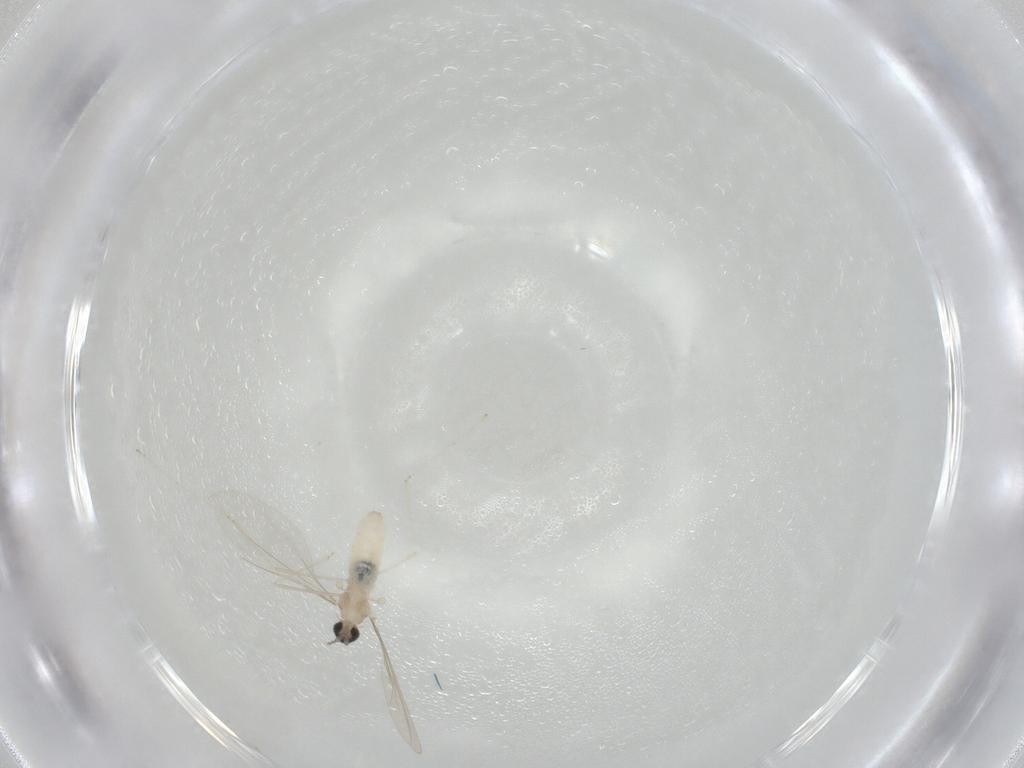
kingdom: Animalia
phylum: Arthropoda
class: Insecta
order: Diptera
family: Cecidomyiidae
